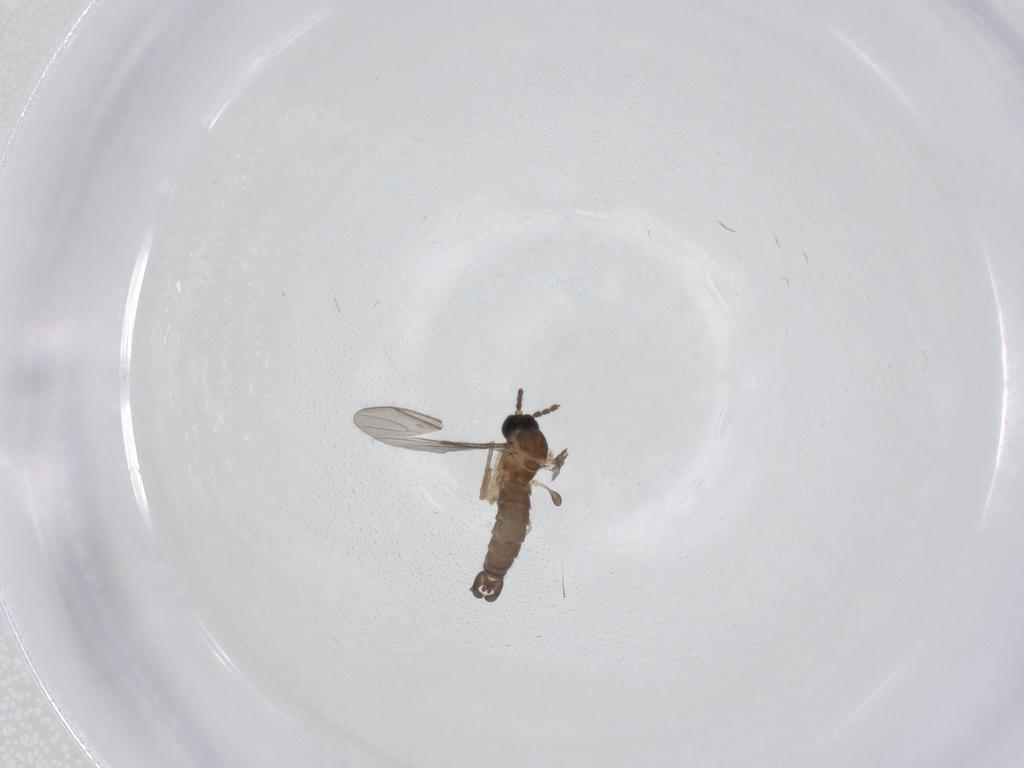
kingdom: Animalia
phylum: Arthropoda
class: Insecta
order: Diptera
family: Sciaridae
